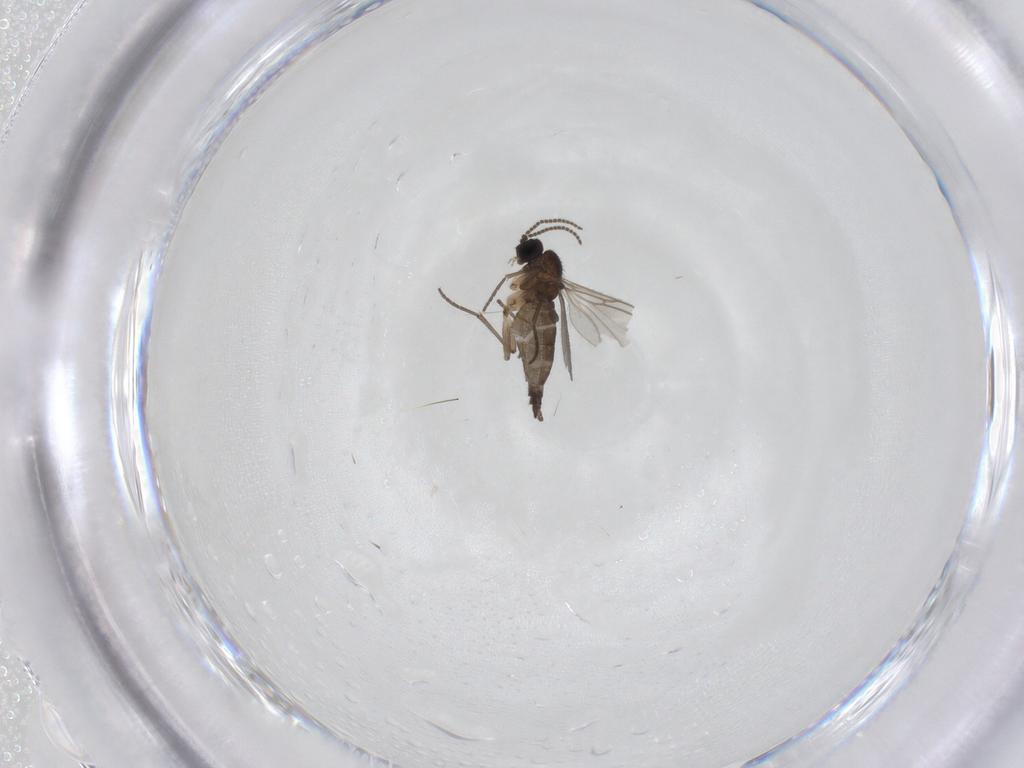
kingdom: Animalia
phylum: Arthropoda
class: Insecta
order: Diptera
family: Sciaridae
